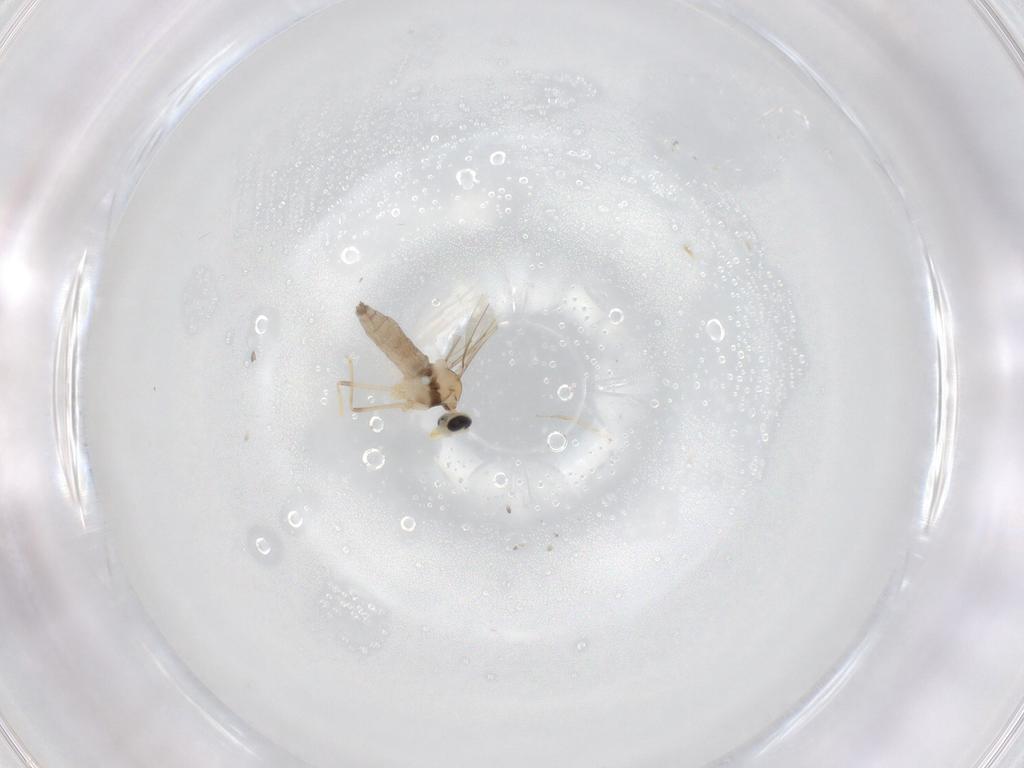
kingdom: Animalia
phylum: Arthropoda
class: Insecta
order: Diptera
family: Cecidomyiidae
